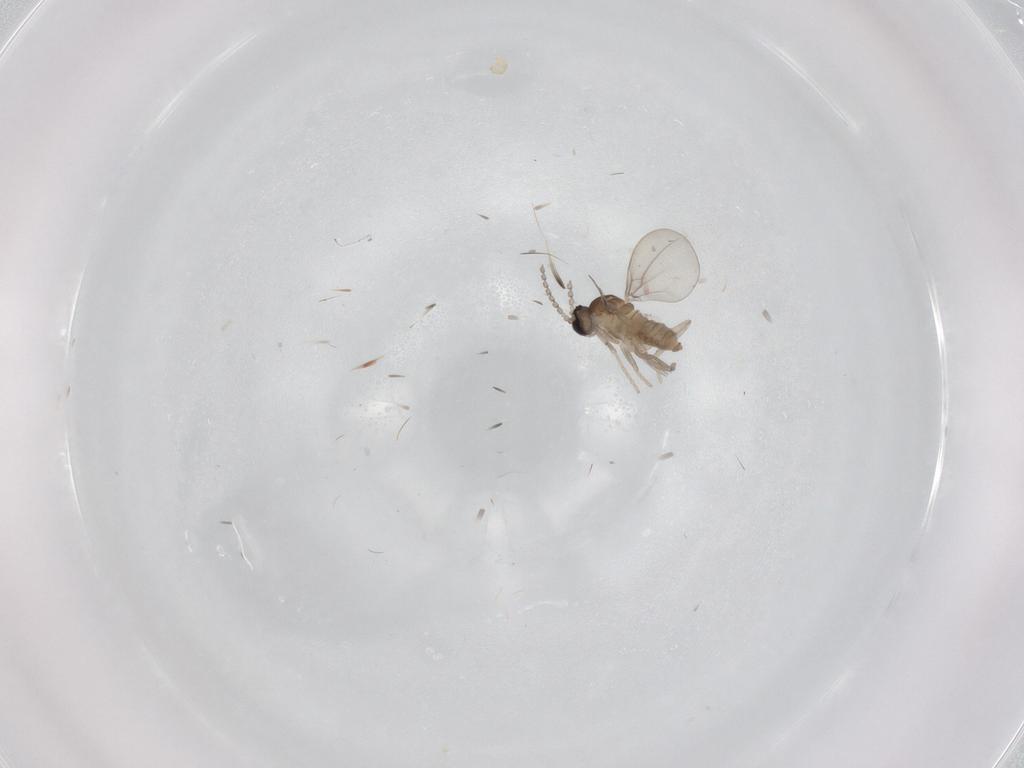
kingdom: Animalia
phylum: Arthropoda
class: Insecta
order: Diptera
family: Cecidomyiidae
